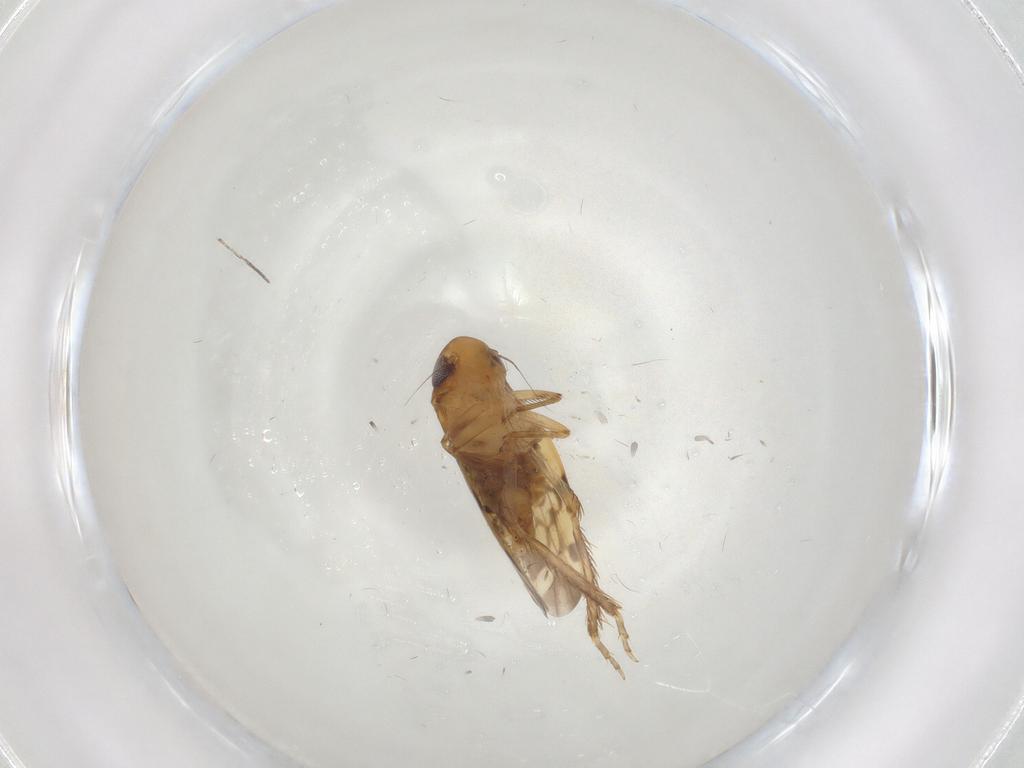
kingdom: Animalia
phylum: Arthropoda
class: Insecta
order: Hemiptera
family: Cicadellidae
